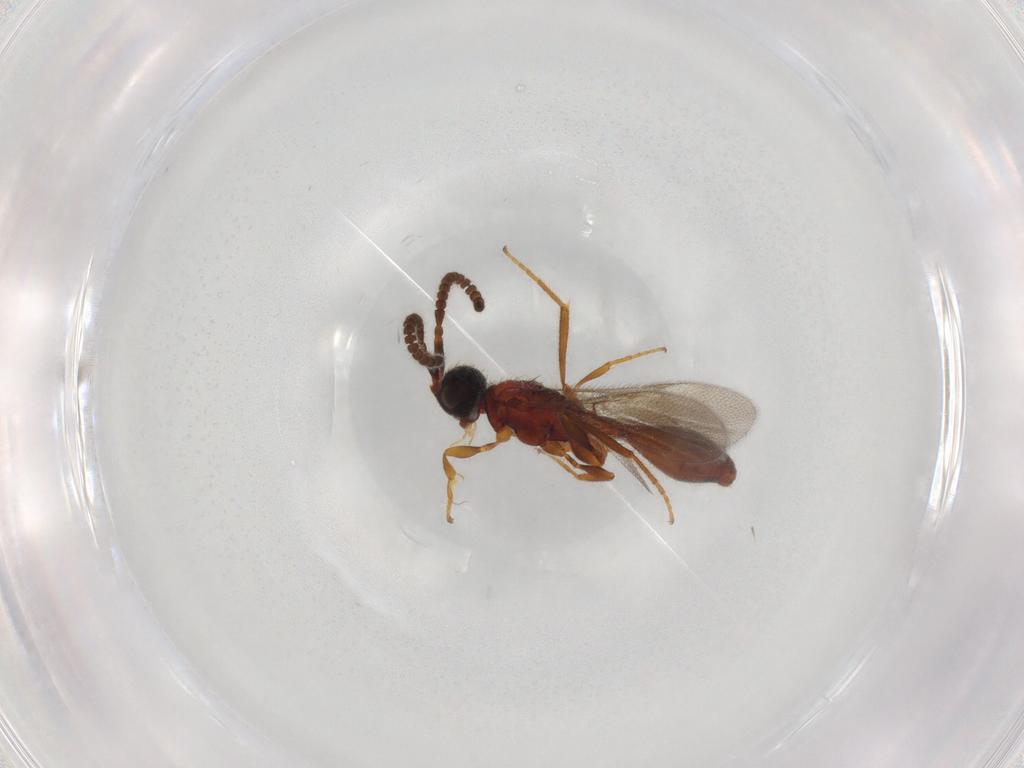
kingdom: Animalia
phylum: Arthropoda
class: Insecta
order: Hymenoptera
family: Diapriidae
